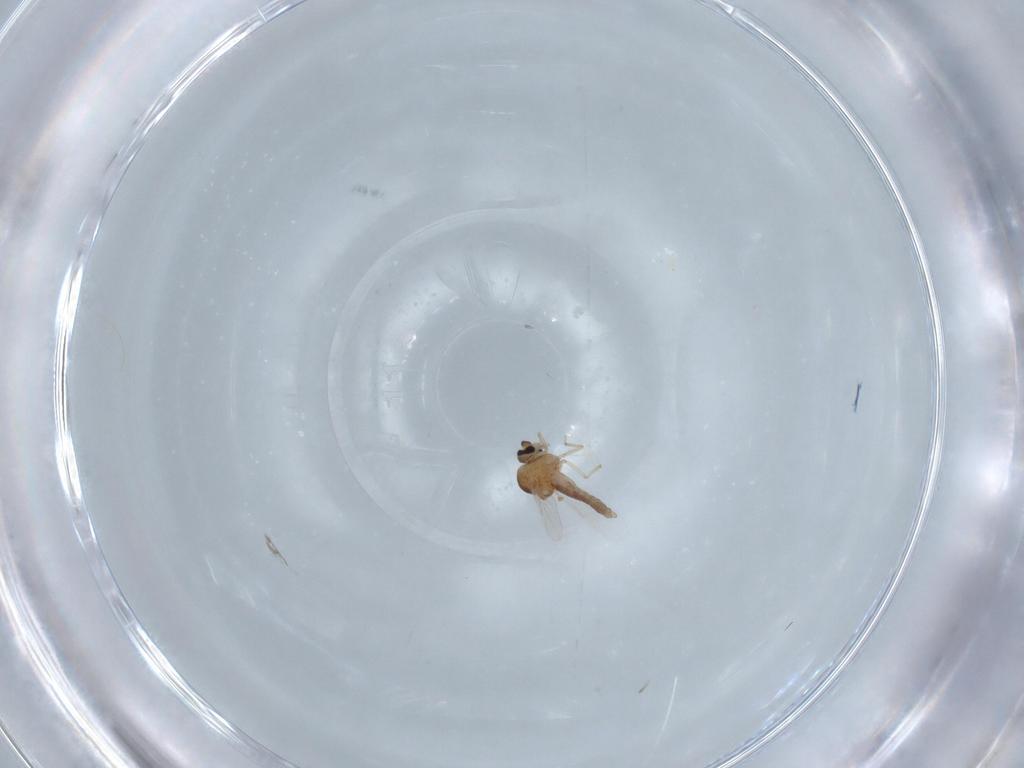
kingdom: Animalia
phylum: Arthropoda
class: Insecta
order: Diptera
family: Ceratopogonidae
